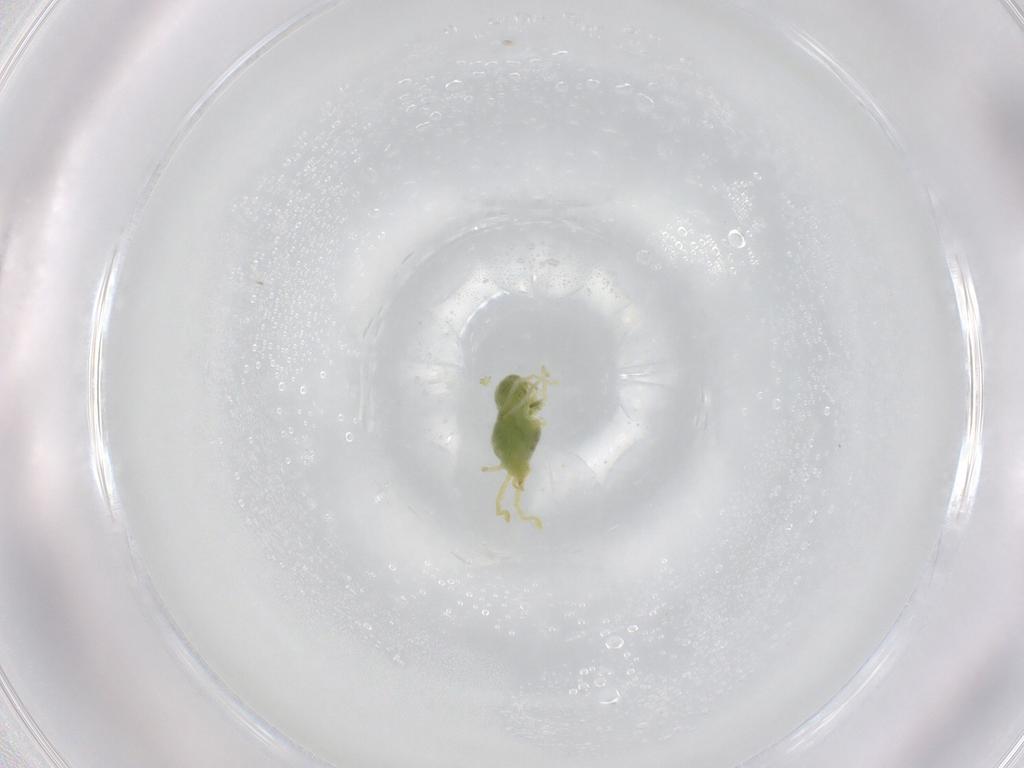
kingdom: Animalia
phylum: Arthropoda
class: Arachnida
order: Trombidiformes
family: Erythraeidae
